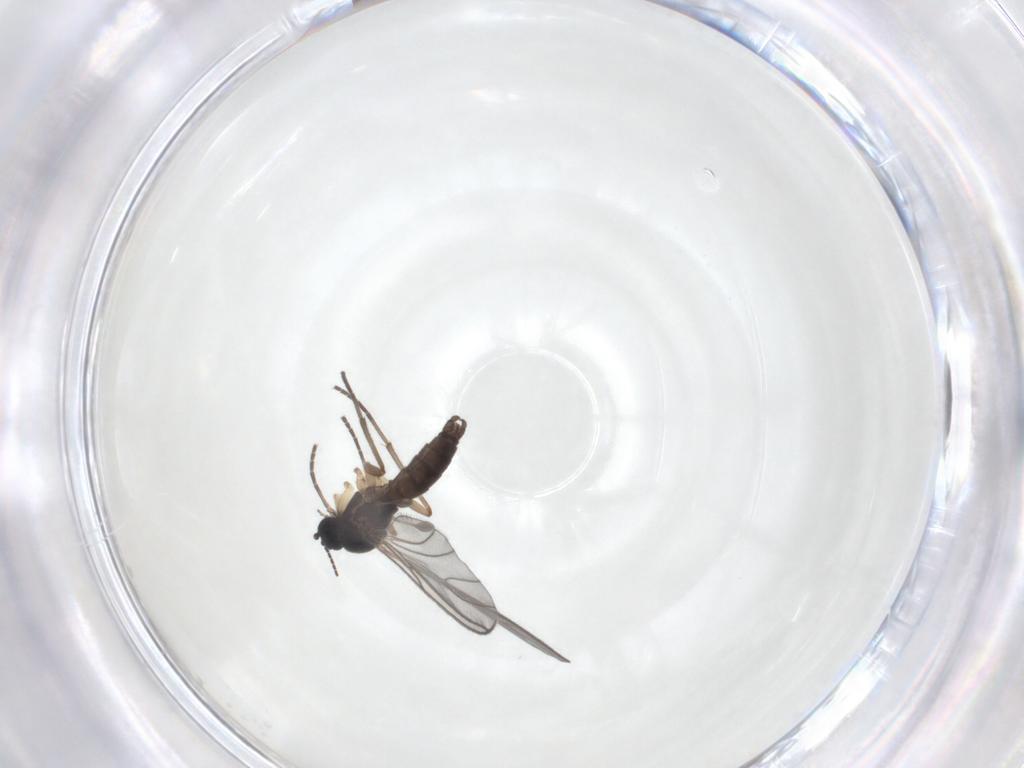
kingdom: Animalia
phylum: Arthropoda
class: Insecta
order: Diptera
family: Sciaridae
